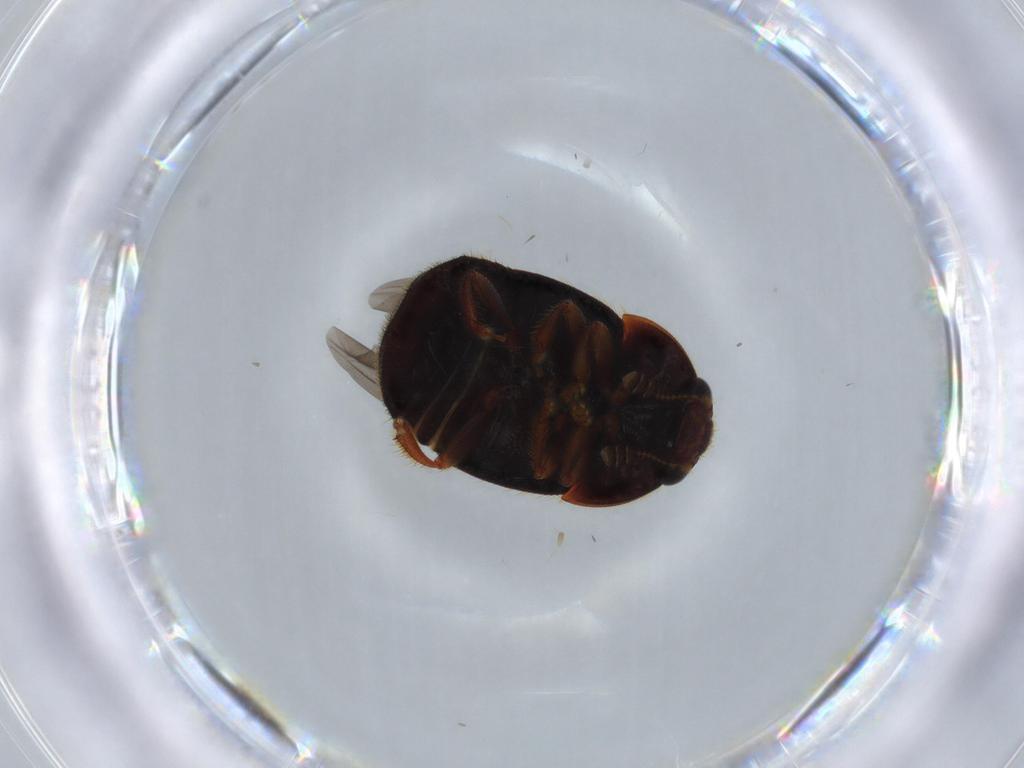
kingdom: Animalia
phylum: Arthropoda
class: Insecta
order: Coleoptera
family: Nitidulidae
